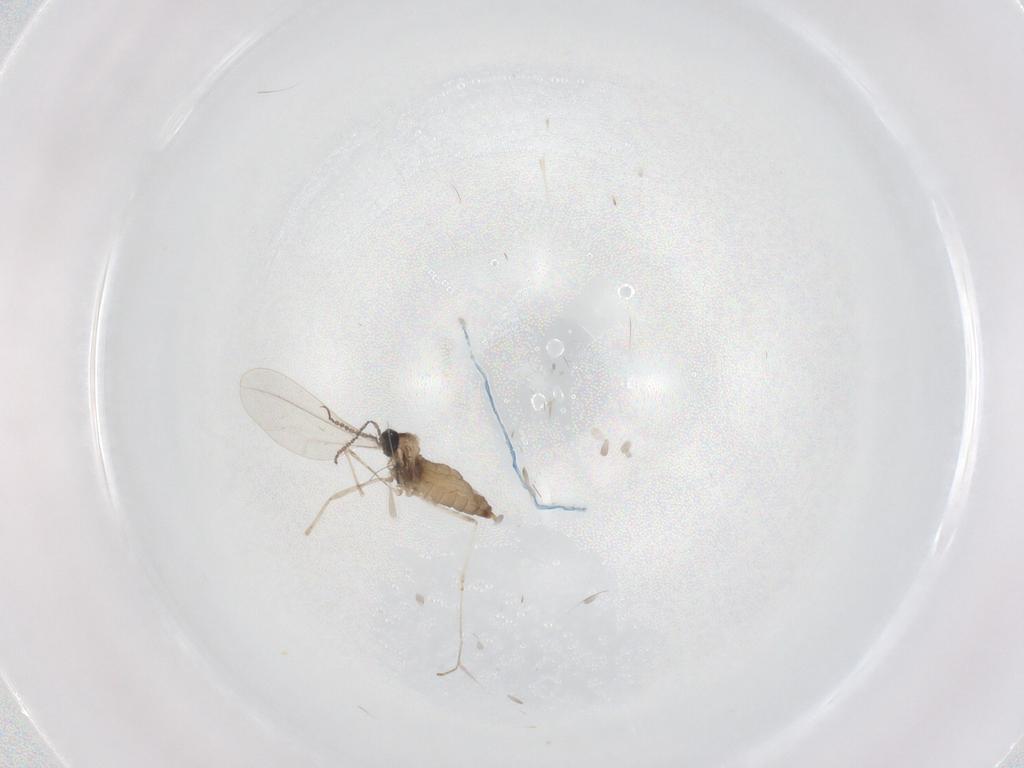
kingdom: Animalia
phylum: Arthropoda
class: Insecta
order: Diptera
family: Cecidomyiidae
